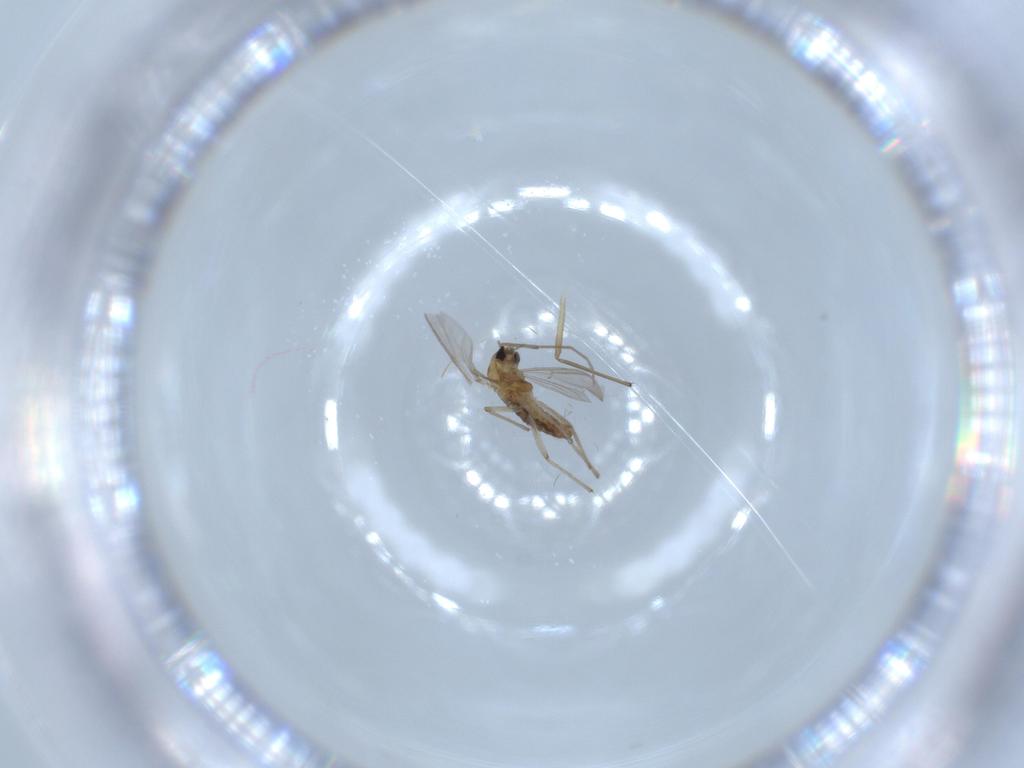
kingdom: Animalia
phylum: Arthropoda
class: Insecta
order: Diptera
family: Chironomidae
